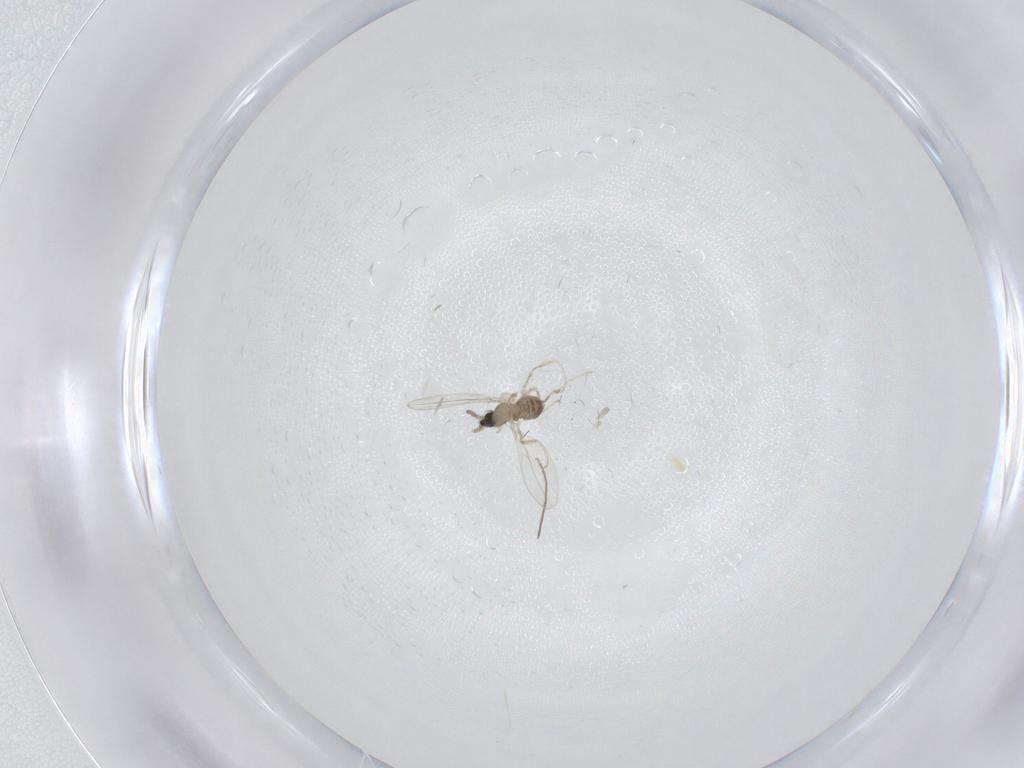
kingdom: Animalia
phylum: Arthropoda
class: Insecta
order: Diptera
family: Cecidomyiidae
